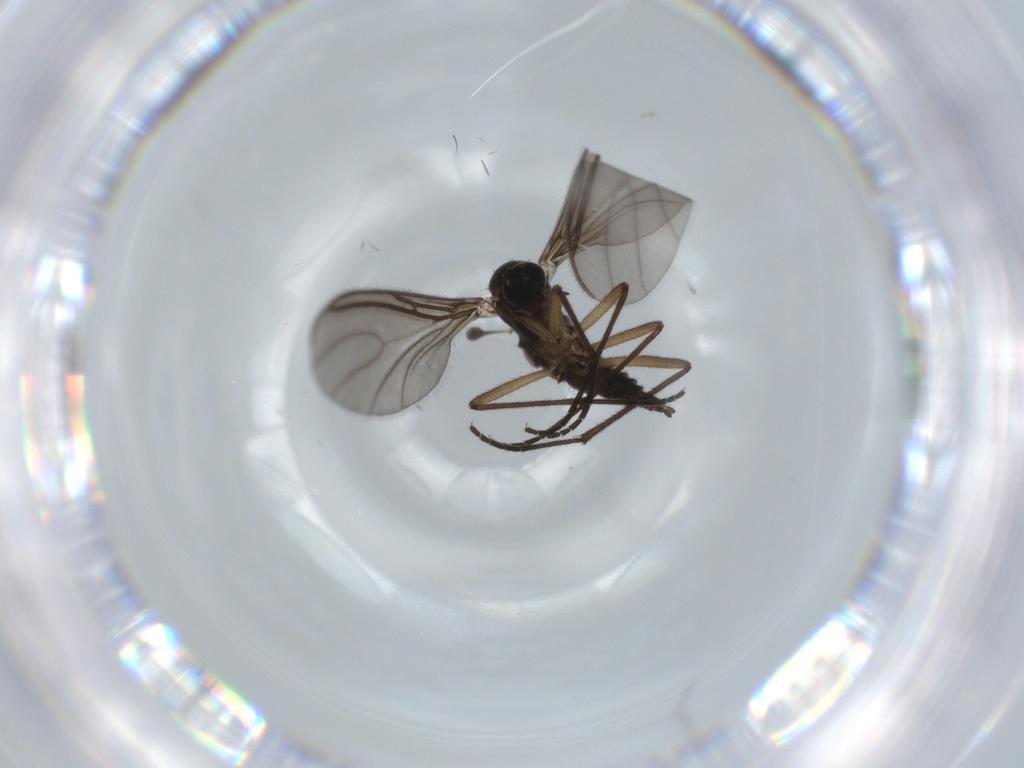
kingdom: Animalia
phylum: Arthropoda
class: Insecta
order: Diptera
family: Sciaridae
